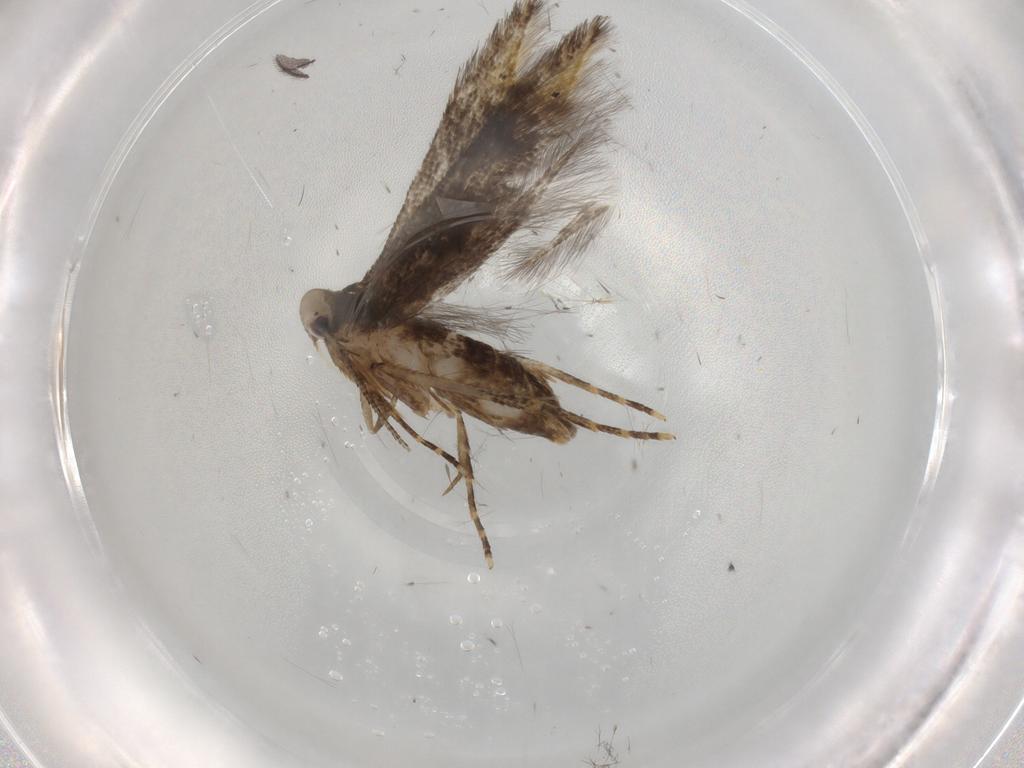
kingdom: Animalia
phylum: Arthropoda
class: Insecta
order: Lepidoptera
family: Cosmopterigidae
